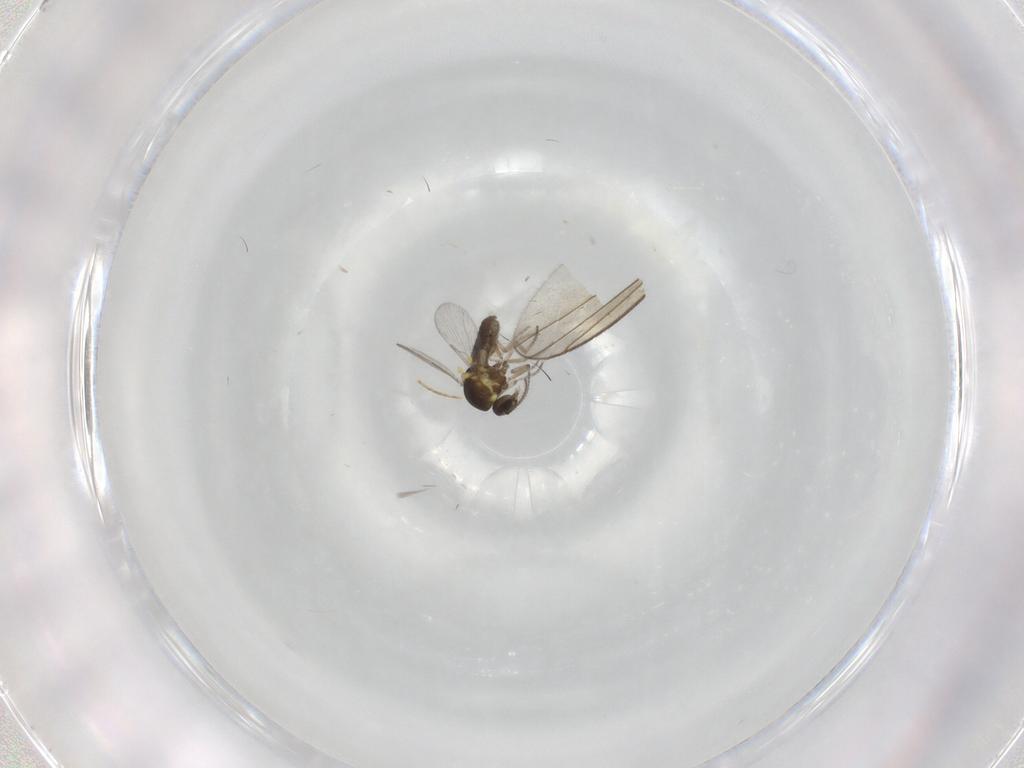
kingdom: Animalia
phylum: Arthropoda
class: Insecta
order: Diptera
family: Ceratopogonidae
